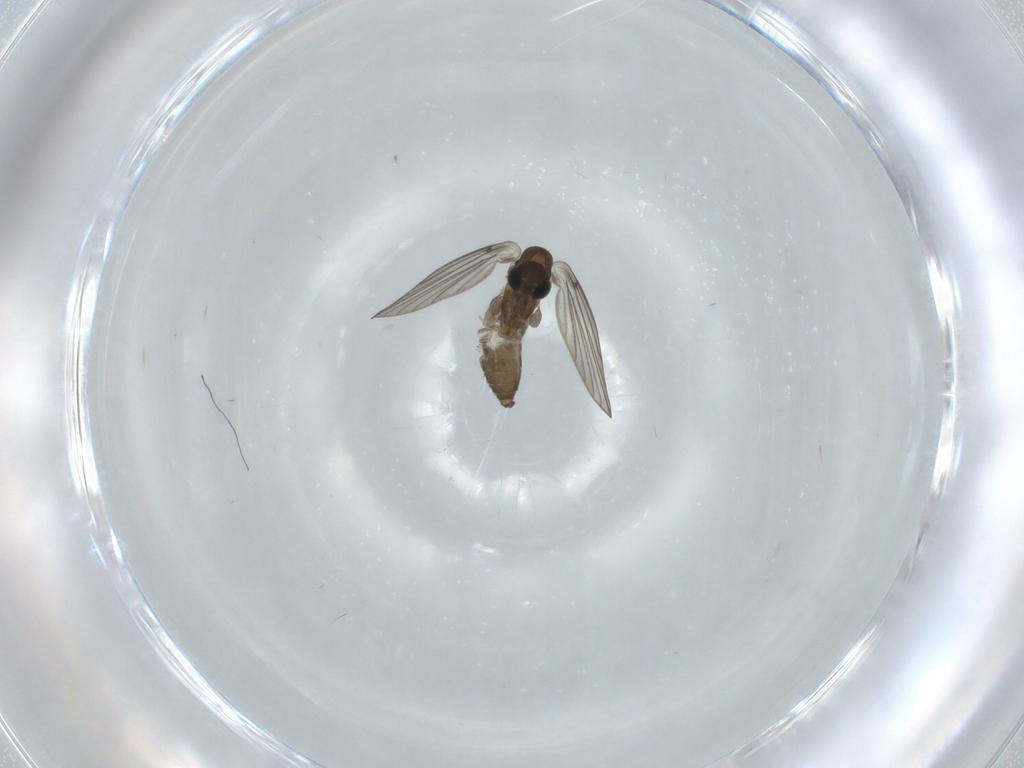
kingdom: Animalia
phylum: Arthropoda
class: Insecta
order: Diptera
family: Psychodidae
